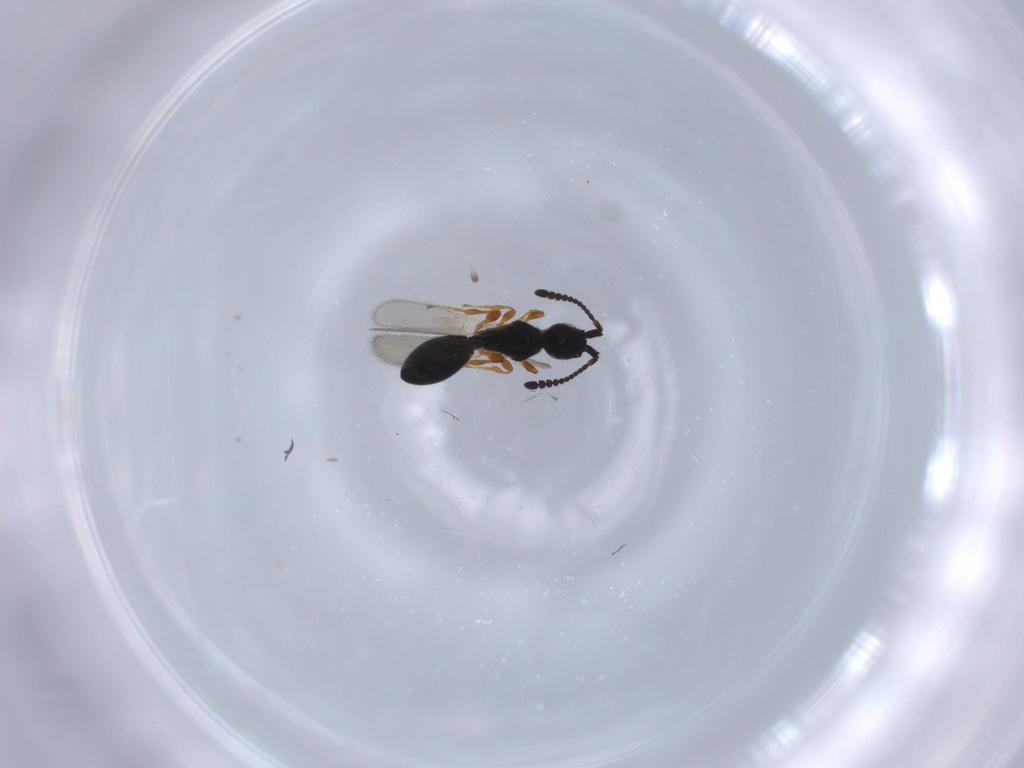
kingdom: Animalia
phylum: Arthropoda
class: Insecta
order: Hymenoptera
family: Diapriidae
